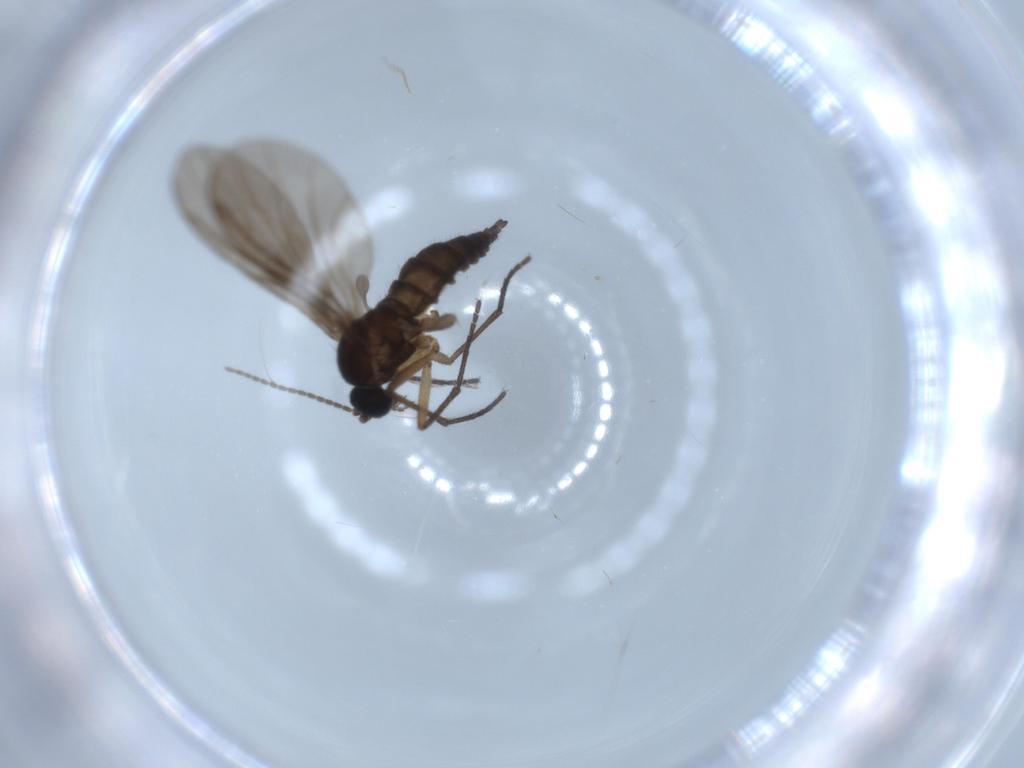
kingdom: Animalia
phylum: Arthropoda
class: Insecta
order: Diptera
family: Sciaridae
